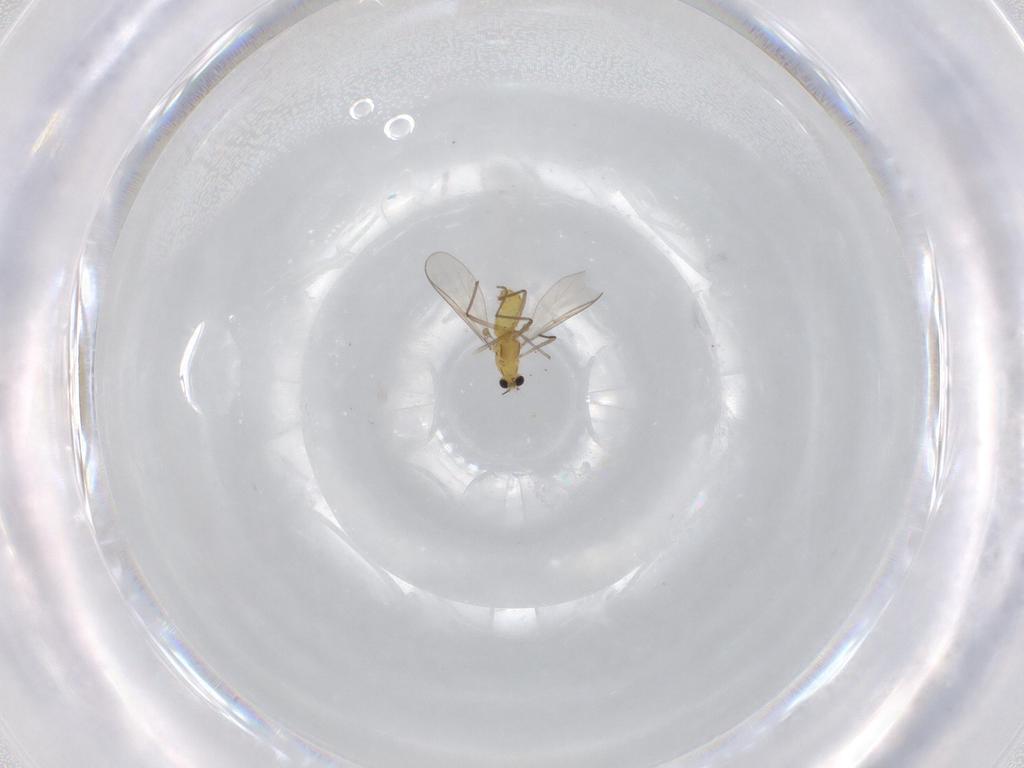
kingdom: Animalia
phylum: Arthropoda
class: Insecta
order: Diptera
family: Chironomidae
